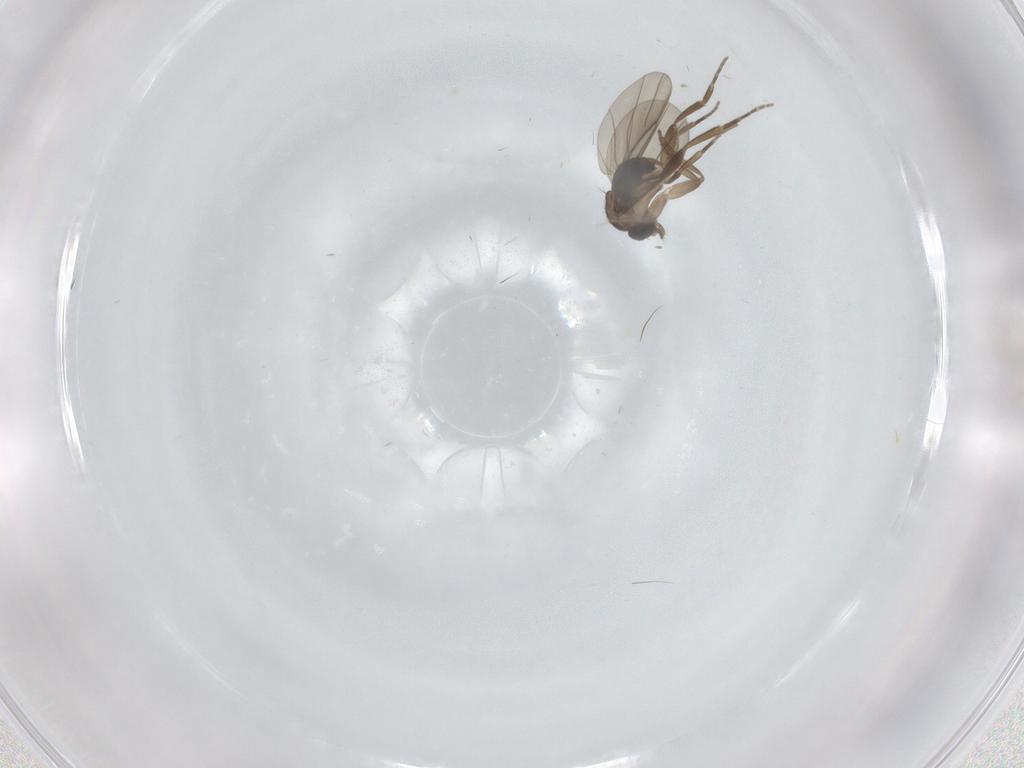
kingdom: Animalia
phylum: Arthropoda
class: Insecta
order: Diptera
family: Cecidomyiidae
